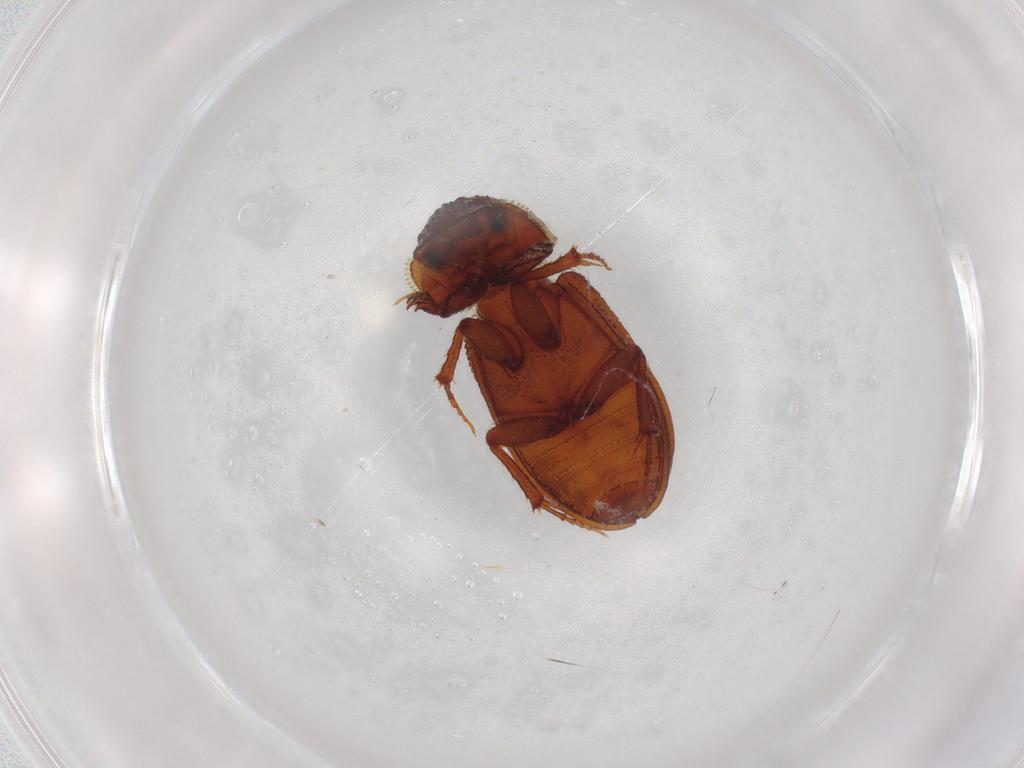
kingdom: Animalia
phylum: Arthropoda
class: Insecta
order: Coleoptera
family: Scarabaeidae
